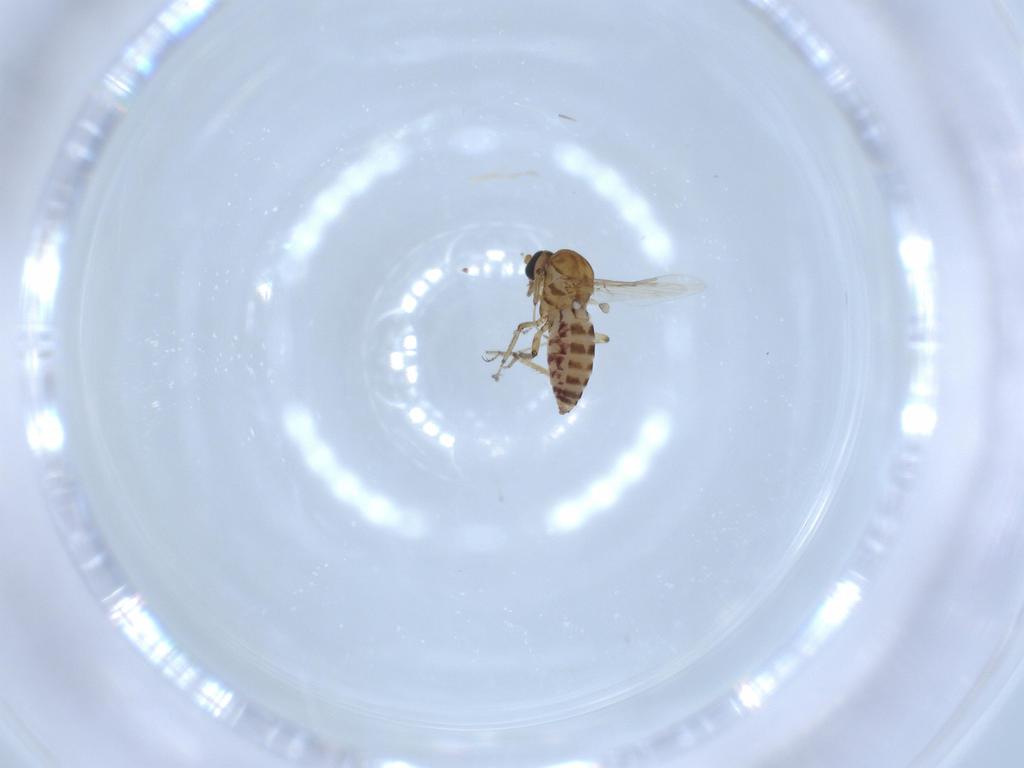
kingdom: Animalia
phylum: Arthropoda
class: Insecta
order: Diptera
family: Ceratopogonidae
